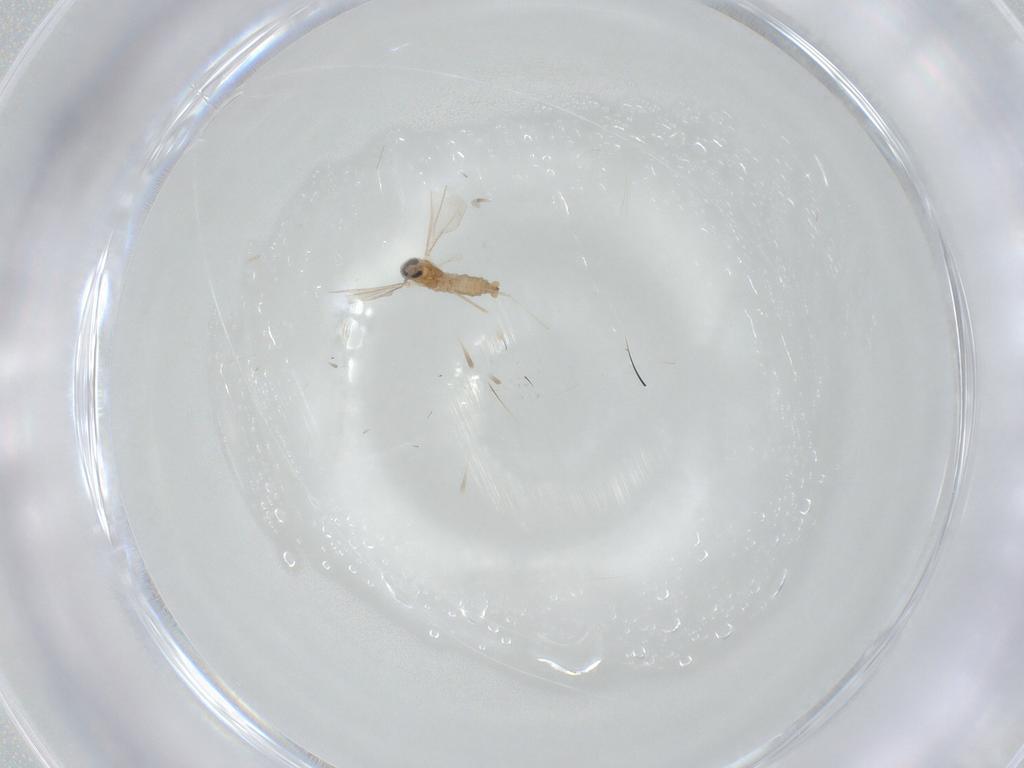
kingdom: Animalia
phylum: Arthropoda
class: Insecta
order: Diptera
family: Cecidomyiidae
